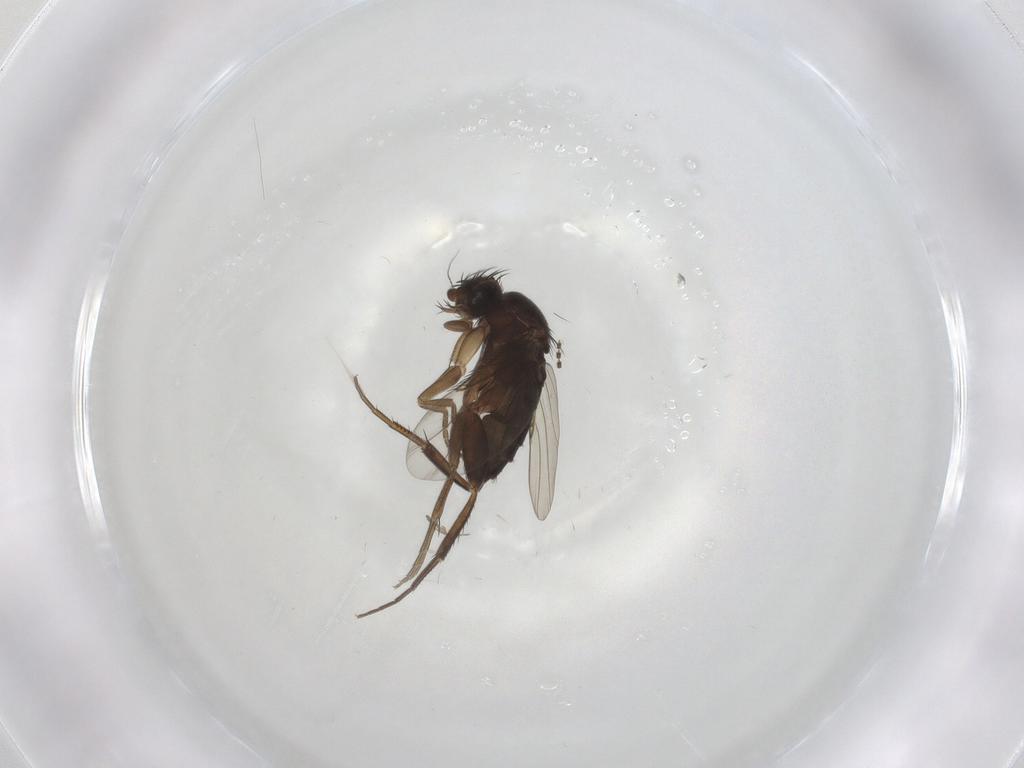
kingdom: Animalia
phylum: Arthropoda
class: Insecta
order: Diptera
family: Phoridae
